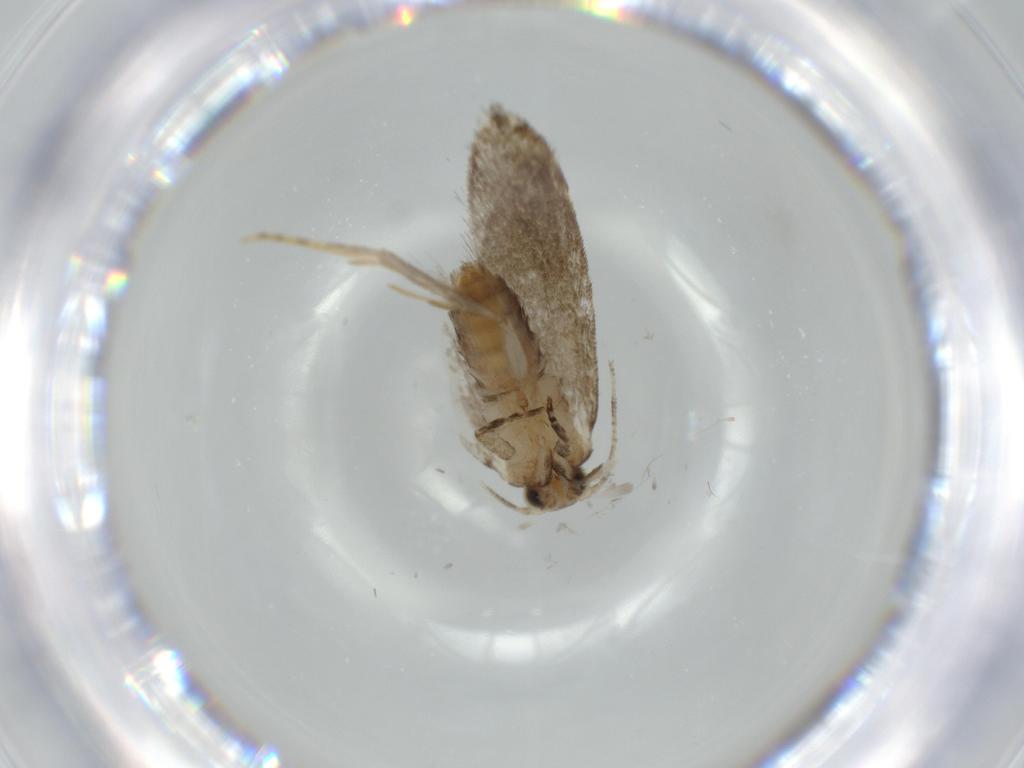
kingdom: Animalia
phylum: Arthropoda
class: Insecta
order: Lepidoptera
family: Tineidae
